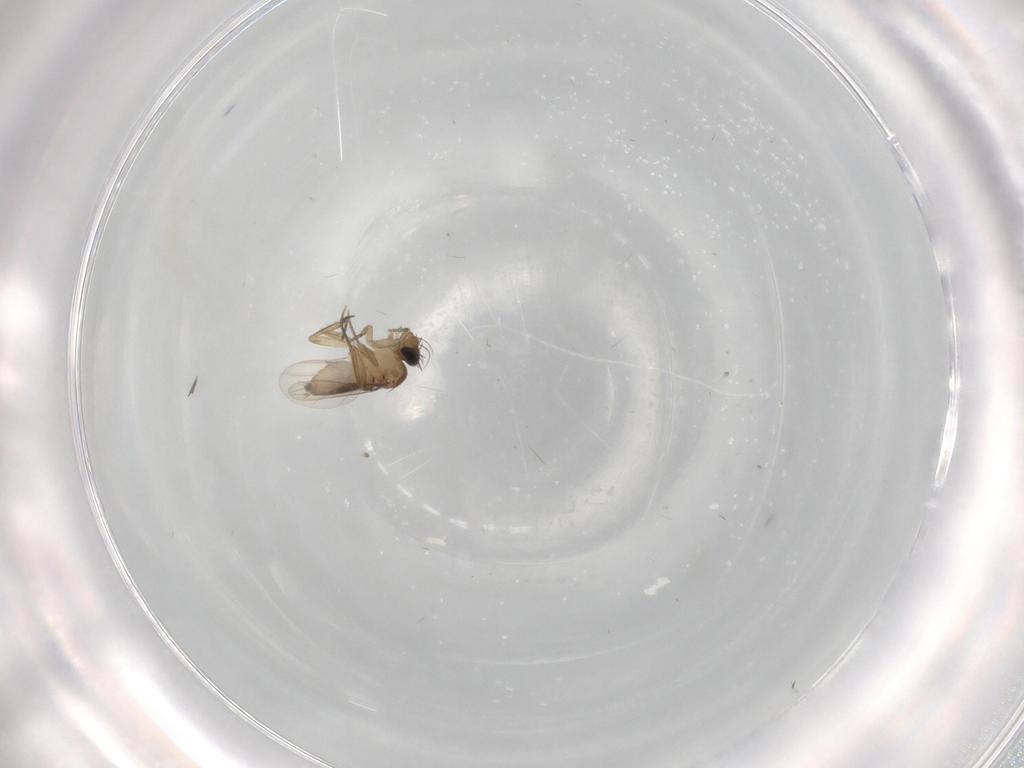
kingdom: Animalia
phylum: Arthropoda
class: Insecta
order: Diptera
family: Phoridae
